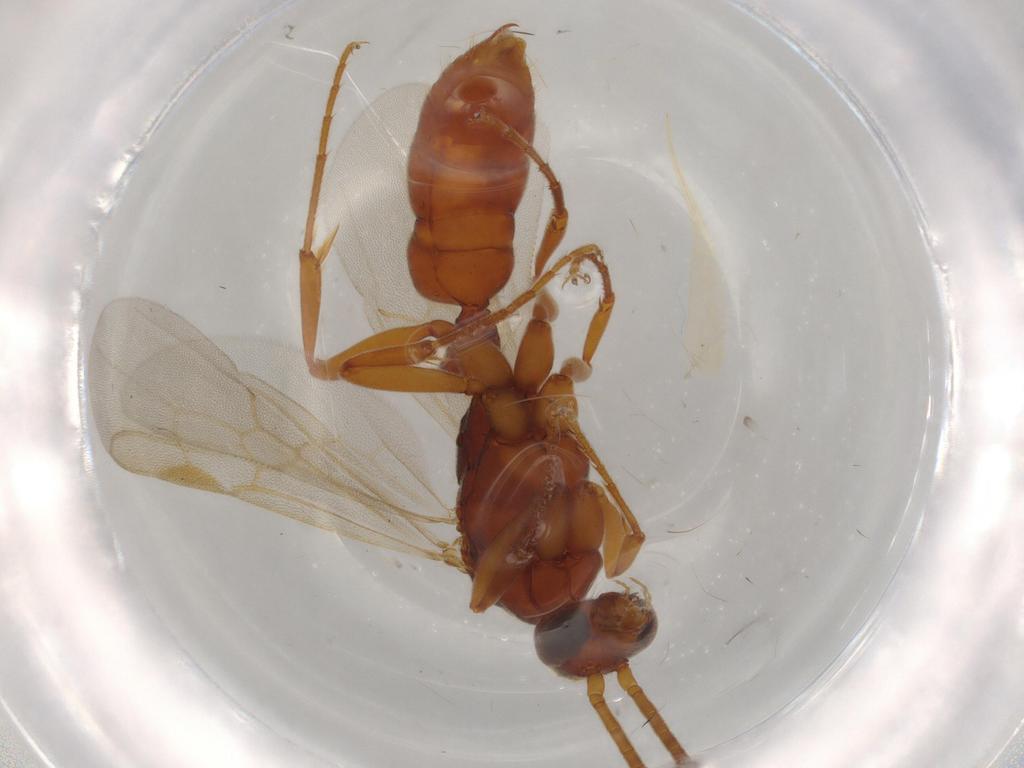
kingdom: Animalia
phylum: Arthropoda
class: Insecta
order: Hymenoptera
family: Formicidae
